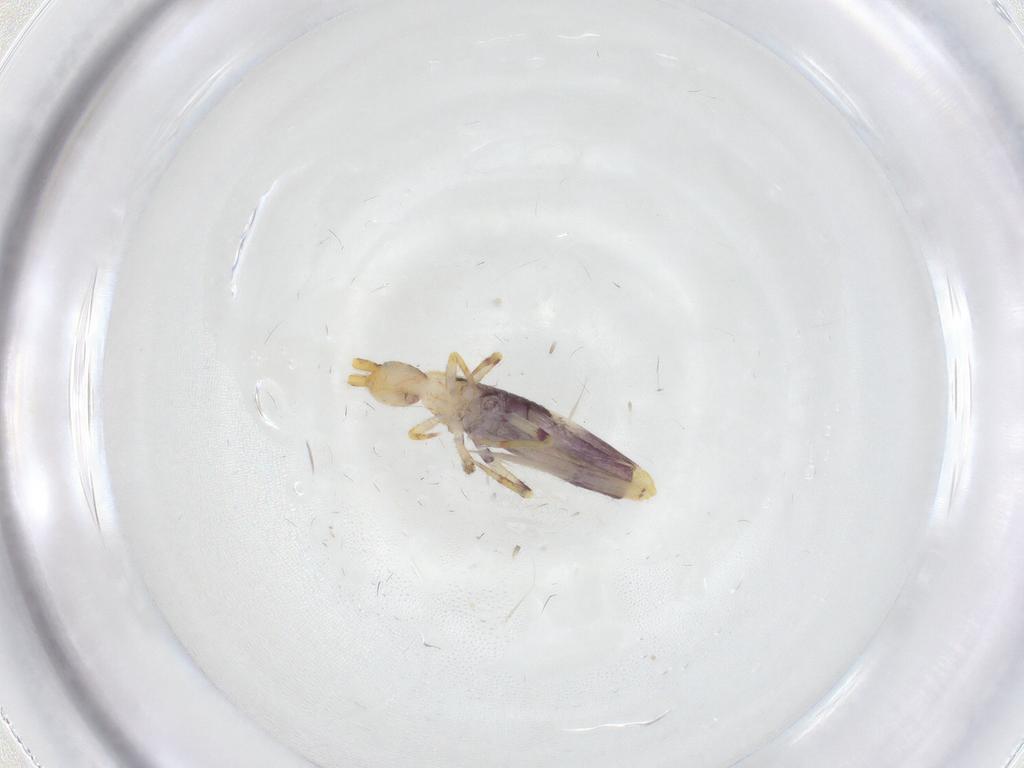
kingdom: Animalia
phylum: Arthropoda
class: Collembola
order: Entomobryomorpha
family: Entomobryidae
